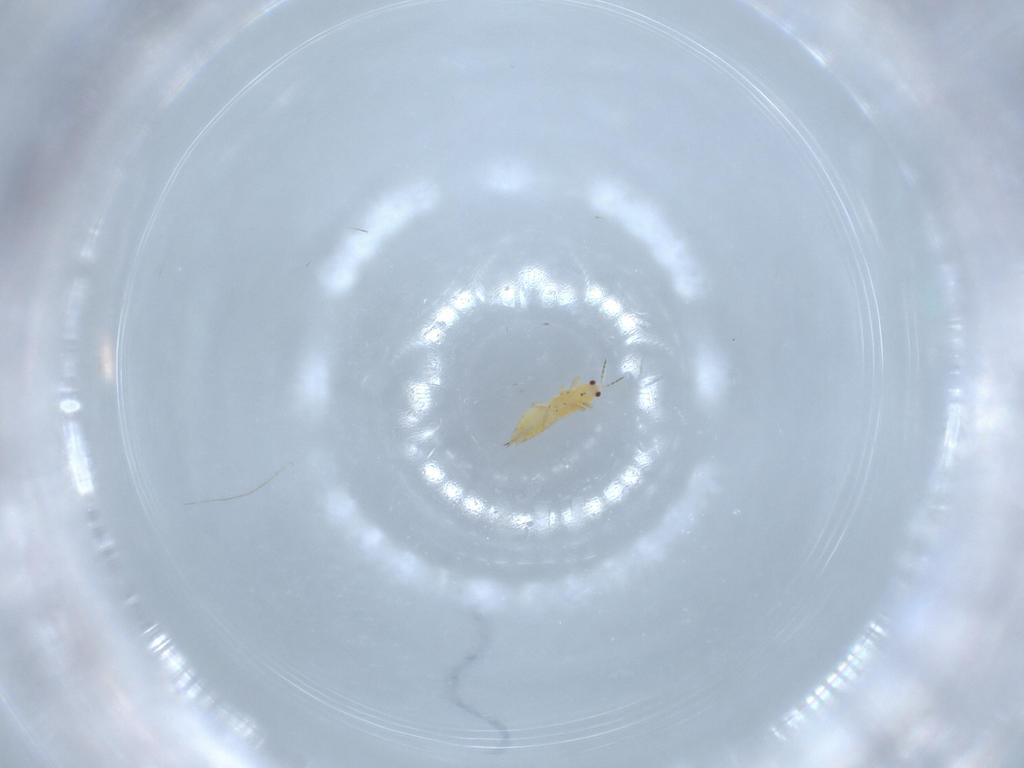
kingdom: Animalia
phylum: Arthropoda
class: Insecta
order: Thysanoptera
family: Thripidae
